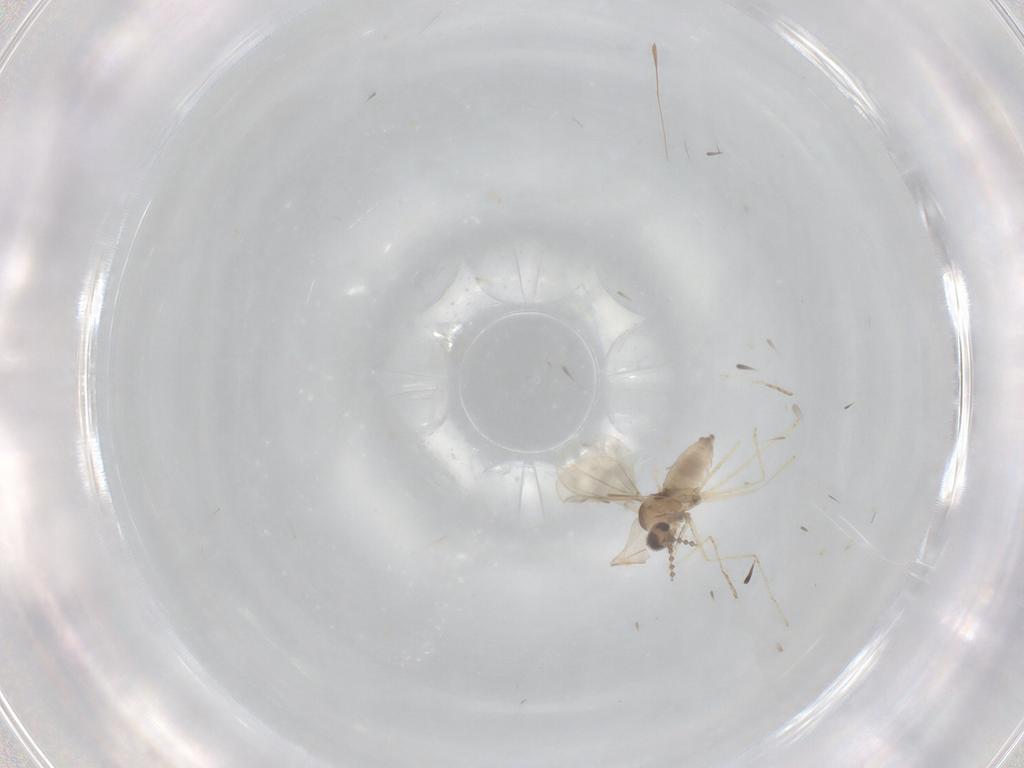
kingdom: Animalia
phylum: Arthropoda
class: Insecta
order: Diptera
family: Cecidomyiidae
